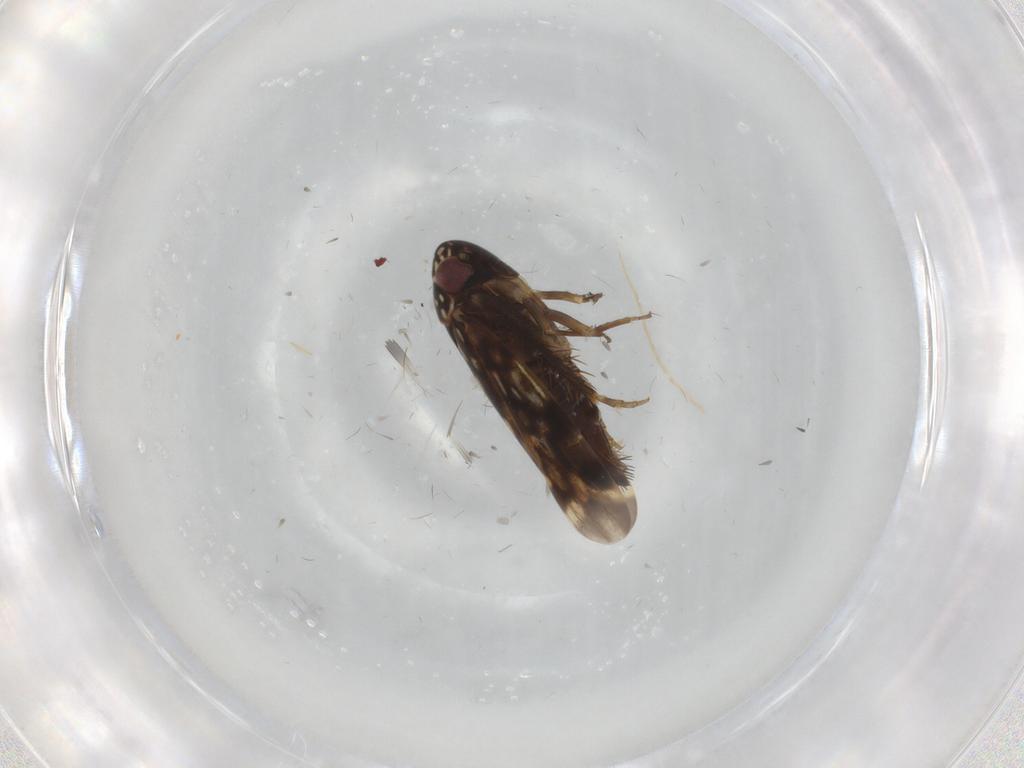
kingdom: Animalia
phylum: Arthropoda
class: Insecta
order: Hemiptera
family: Cicadellidae
